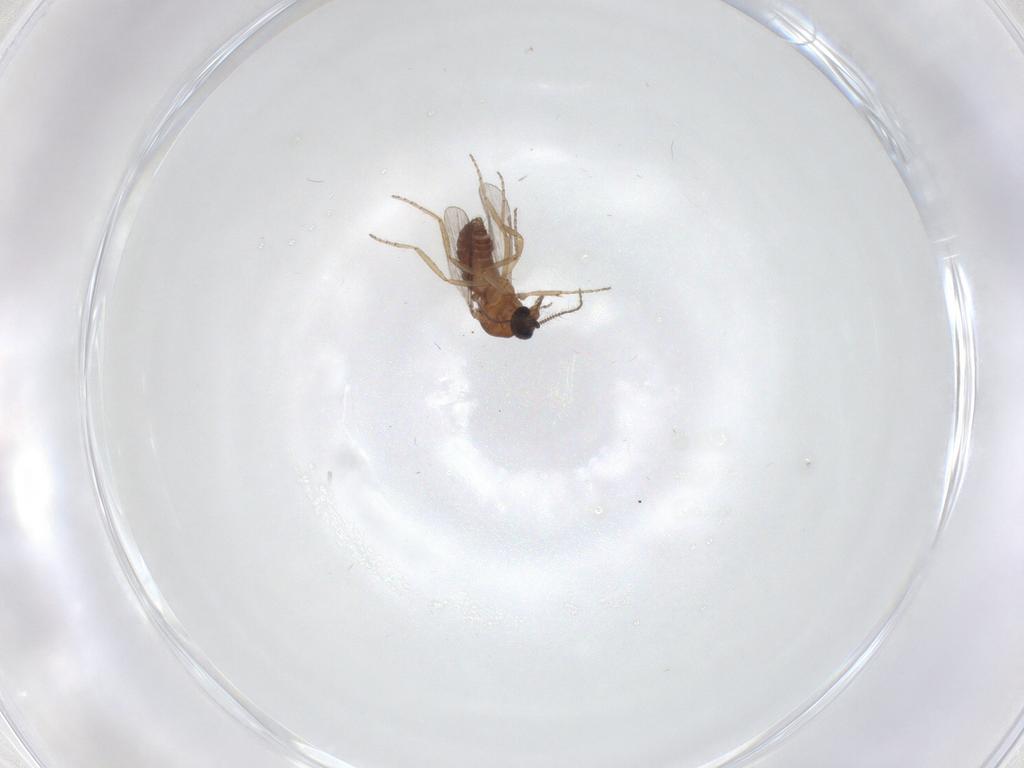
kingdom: Animalia
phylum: Arthropoda
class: Insecta
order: Diptera
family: Ceratopogonidae
